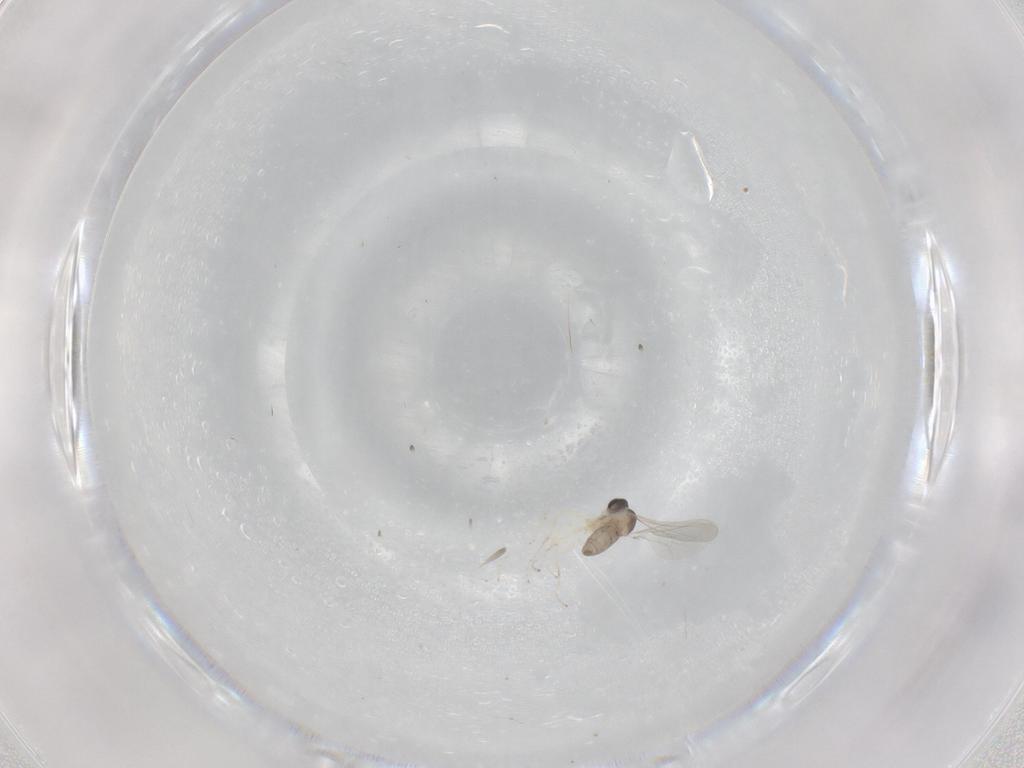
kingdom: Animalia
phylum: Arthropoda
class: Insecta
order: Diptera
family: Cecidomyiidae
